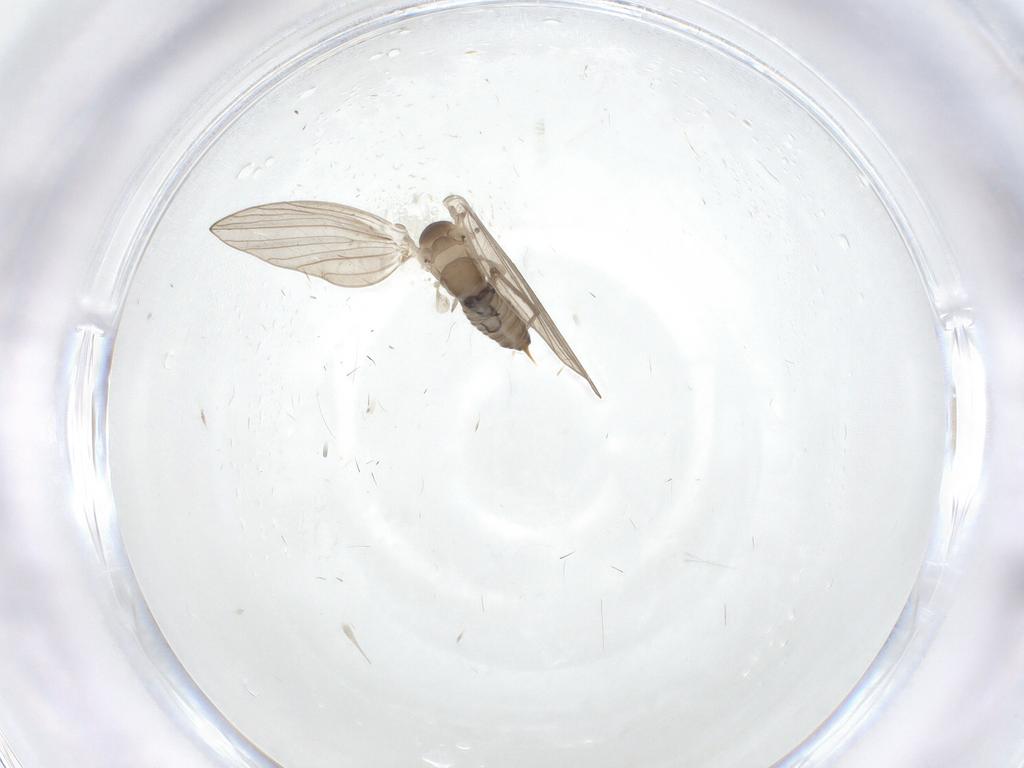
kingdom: Animalia
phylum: Arthropoda
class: Insecta
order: Diptera
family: Psychodidae
